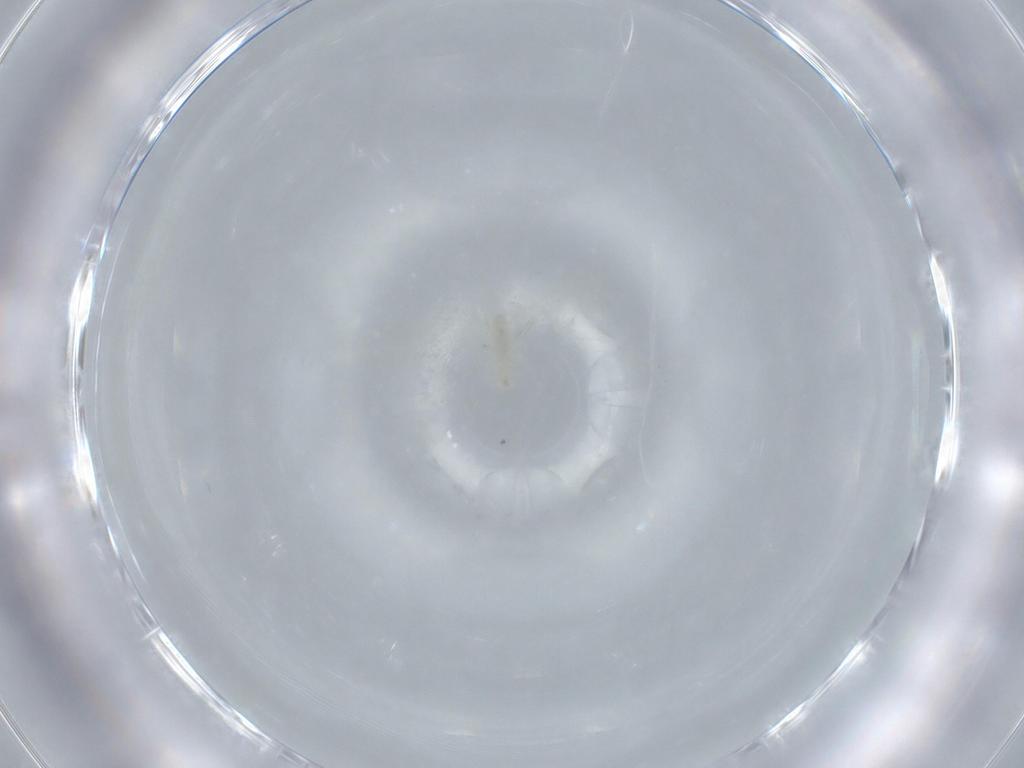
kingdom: Animalia
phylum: Arthropoda
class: Insecta
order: Diptera
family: Cecidomyiidae
